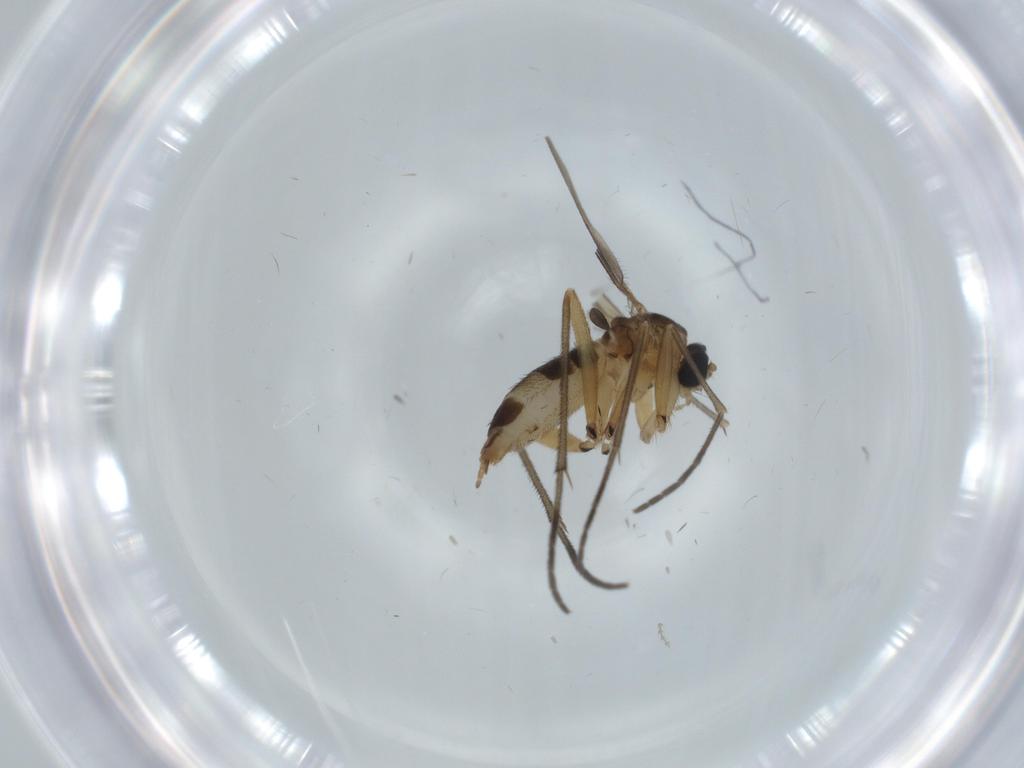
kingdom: Animalia
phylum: Arthropoda
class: Insecta
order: Diptera
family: Sciaridae
